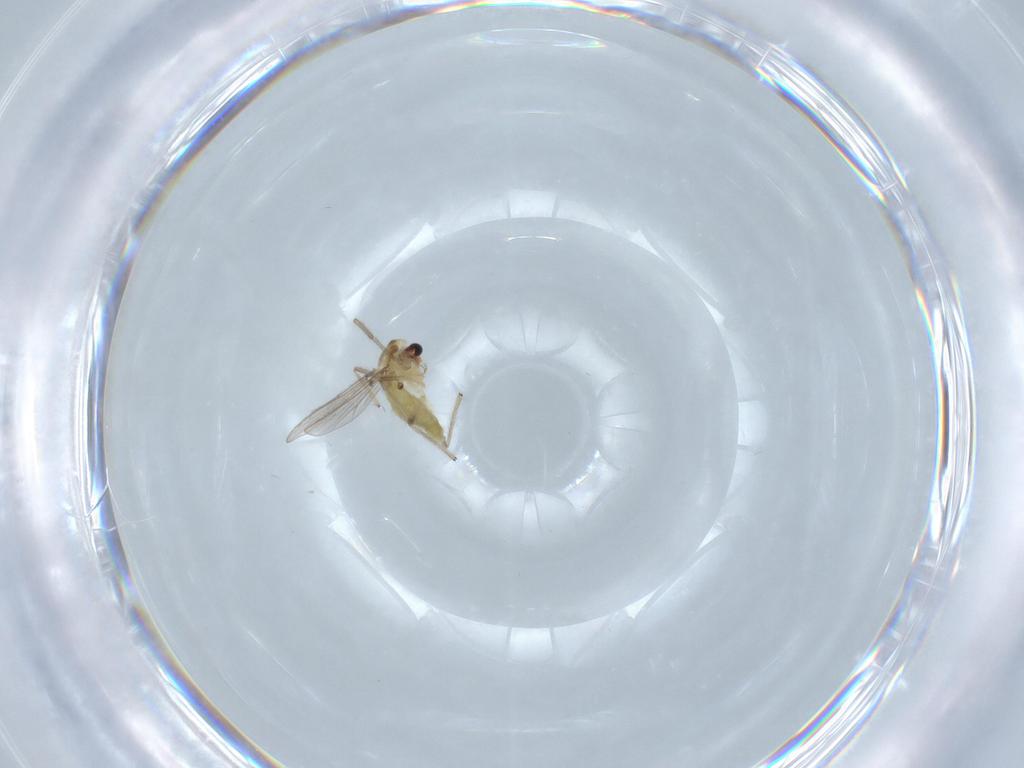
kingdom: Animalia
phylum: Arthropoda
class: Insecta
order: Diptera
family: Chironomidae
